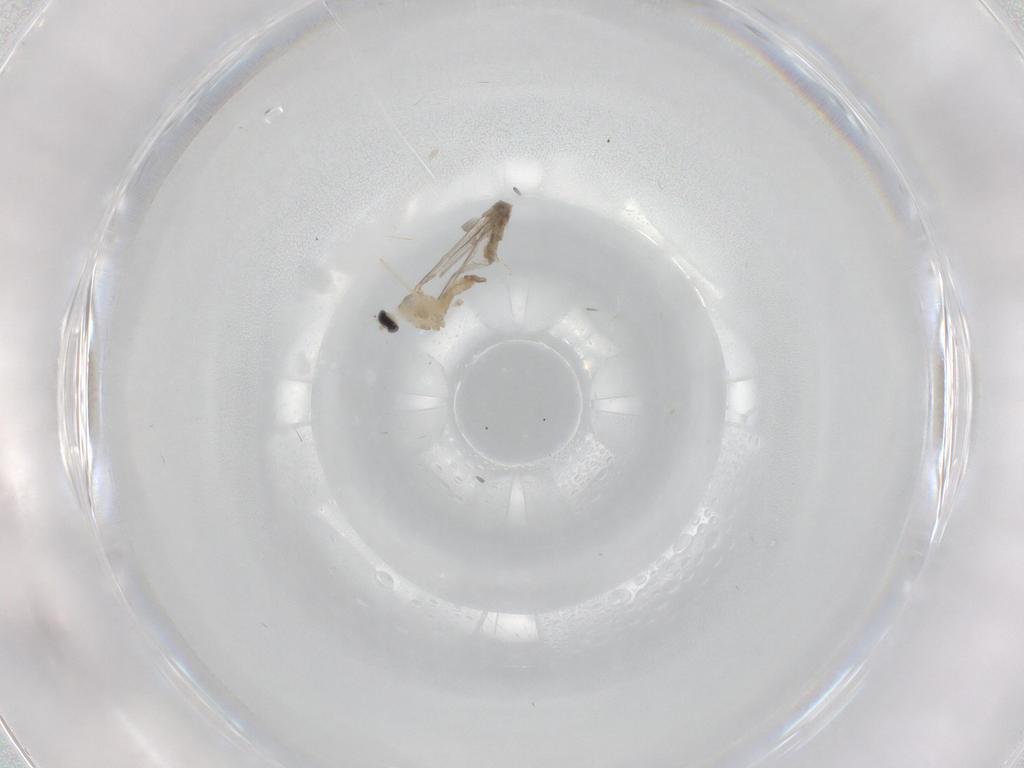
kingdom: Animalia
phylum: Arthropoda
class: Insecta
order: Diptera
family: Cecidomyiidae
